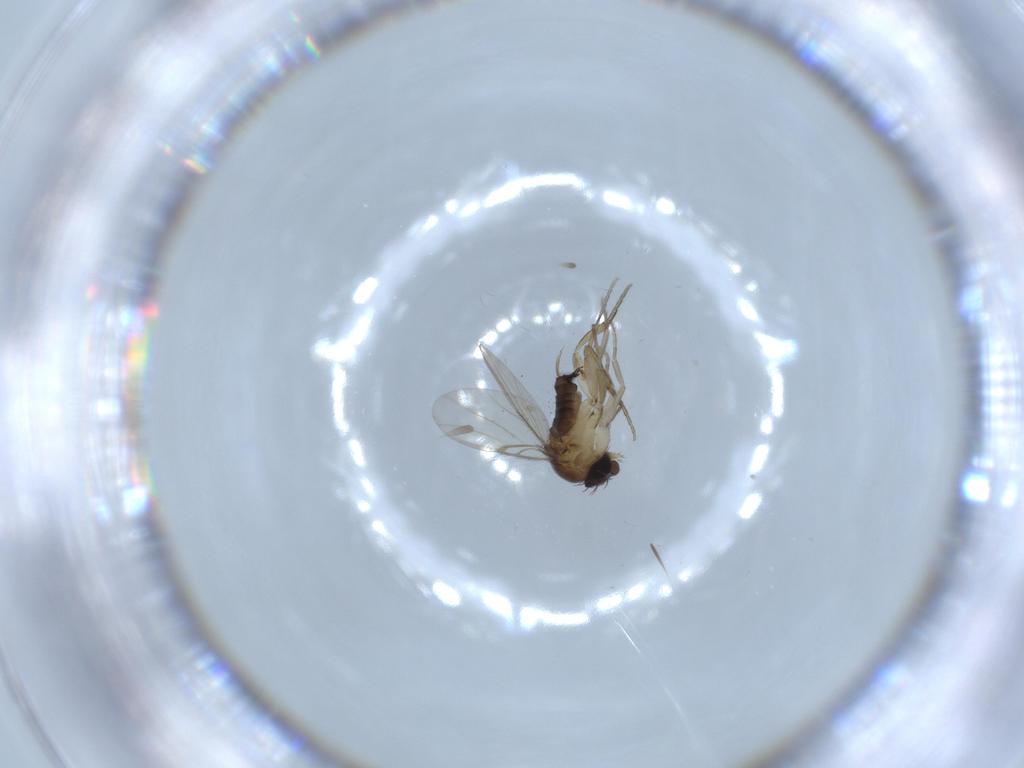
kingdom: Animalia
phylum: Arthropoda
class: Insecta
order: Diptera
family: Phoridae
